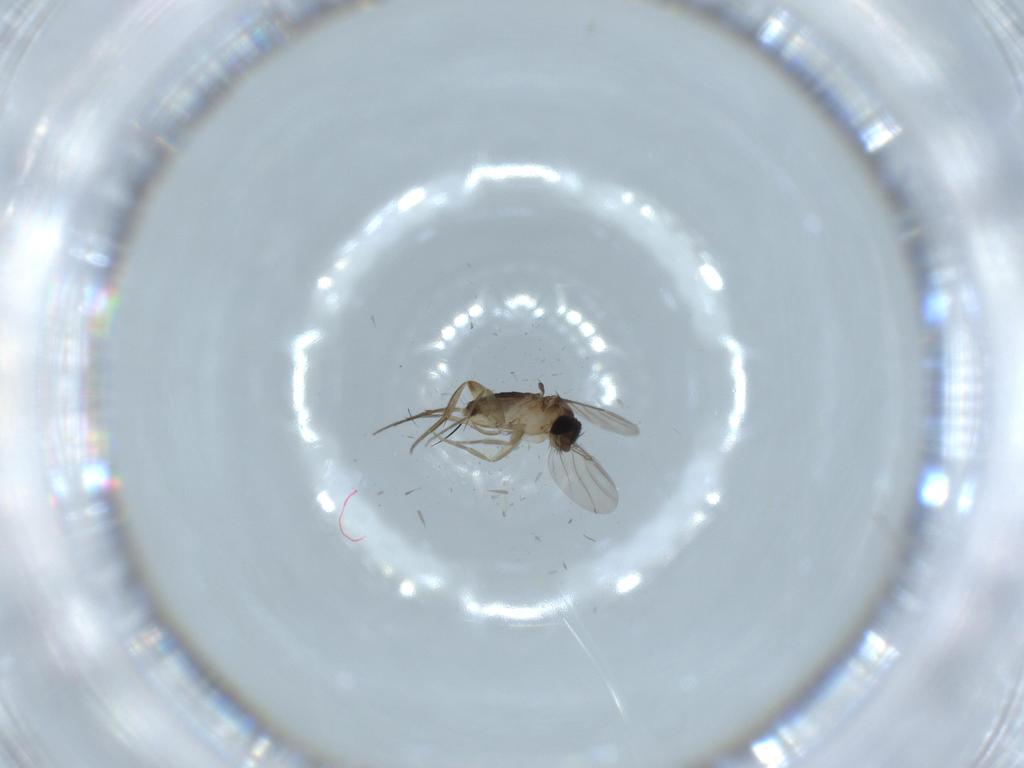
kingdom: Animalia
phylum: Arthropoda
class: Insecta
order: Diptera
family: Phoridae
